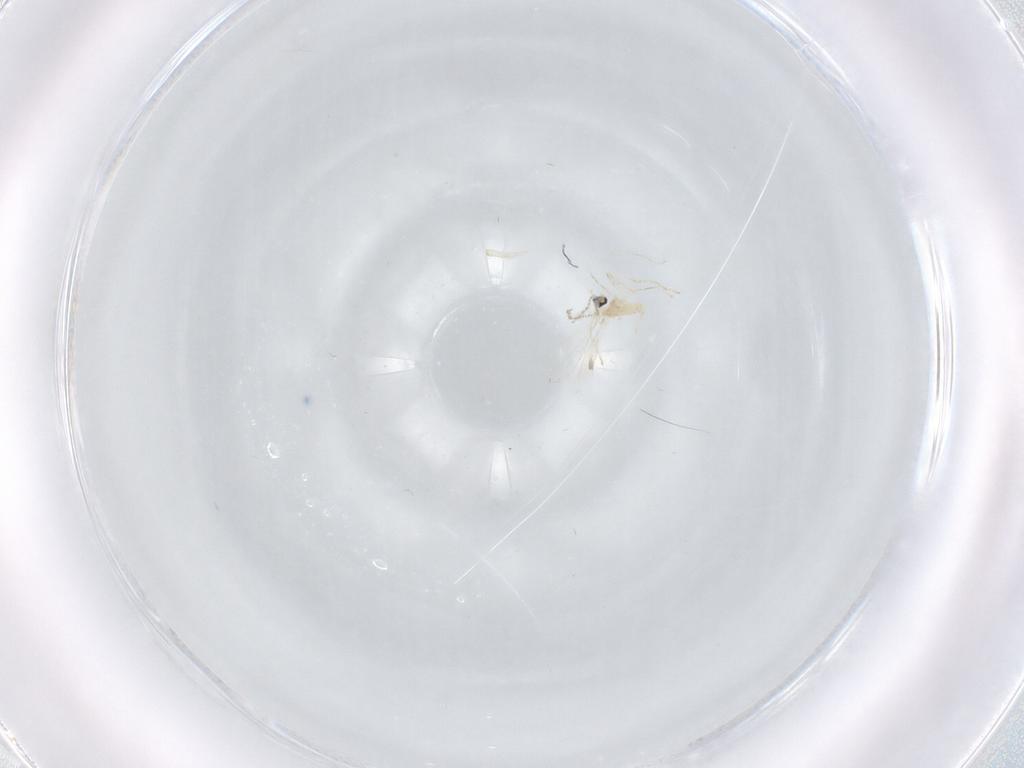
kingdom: Animalia
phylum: Arthropoda
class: Insecta
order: Diptera
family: Cecidomyiidae
